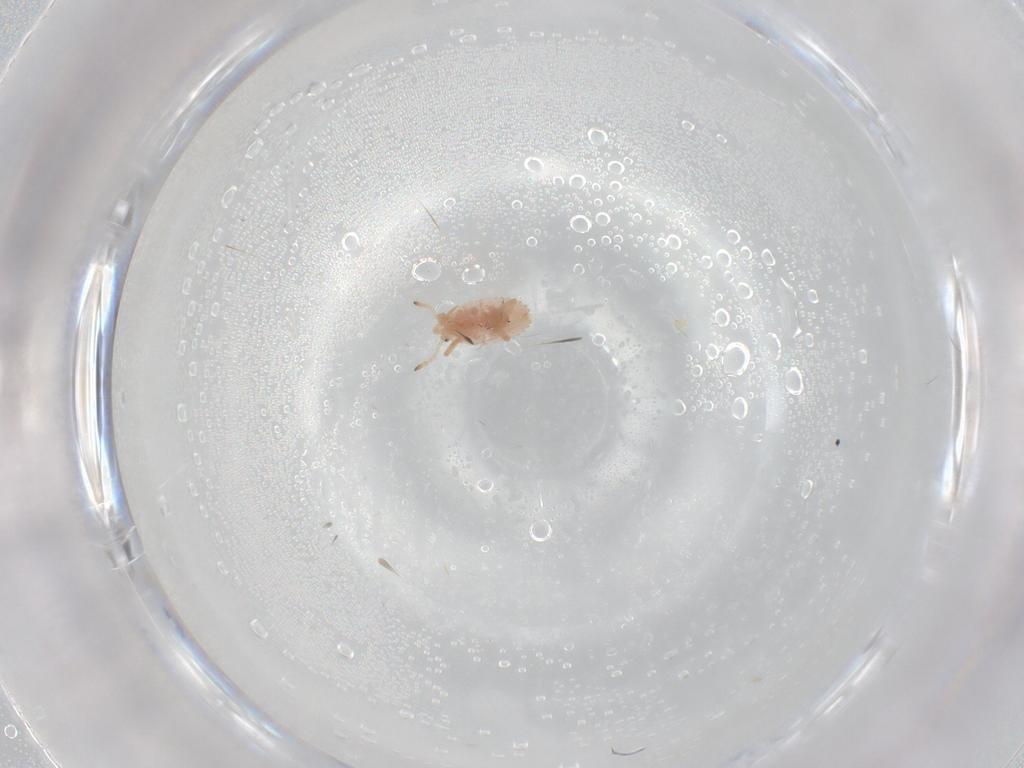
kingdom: Animalia
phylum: Arthropoda
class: Insecta
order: Hemiptera
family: Coccoidea_incertae_sedis
